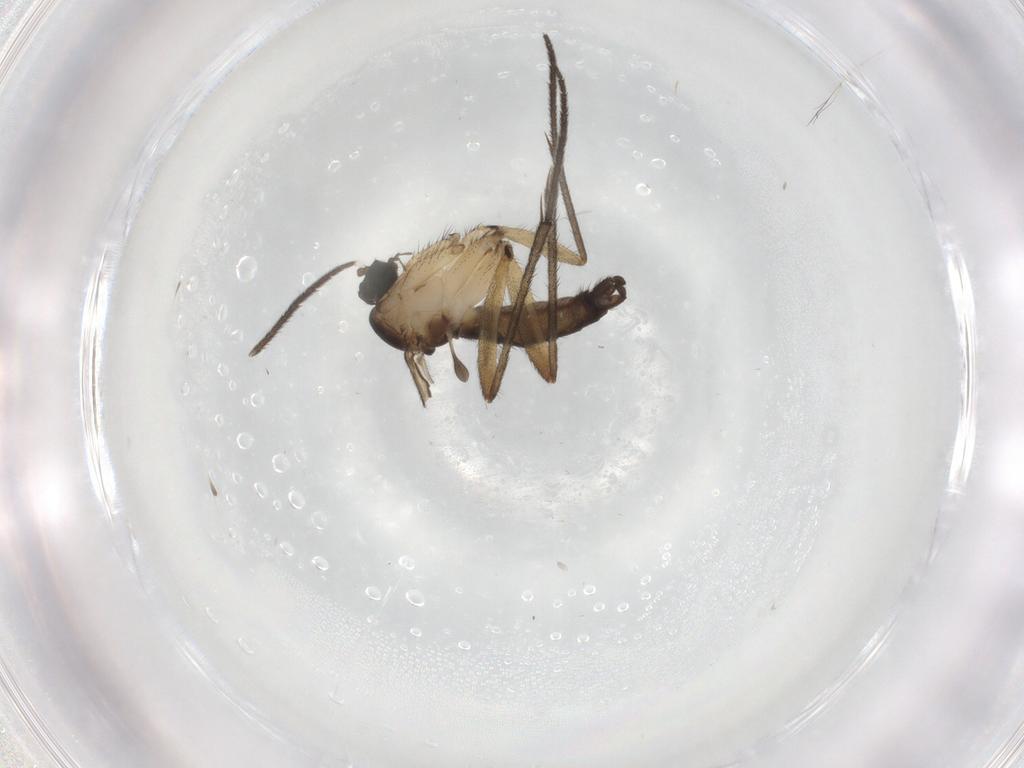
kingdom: Animalia
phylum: Arthropoda
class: Insecta
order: Diptera
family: Sciaridae
